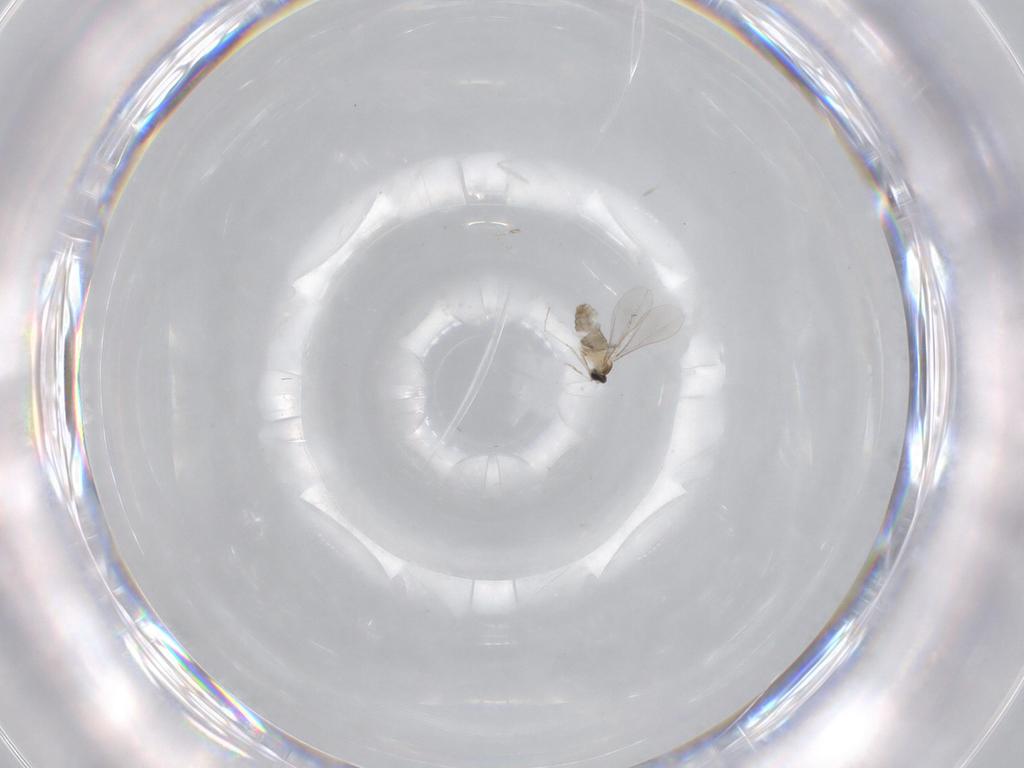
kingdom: Animalia
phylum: Arthropoda
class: Insecta
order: Diptera
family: Cecidomyiidae
